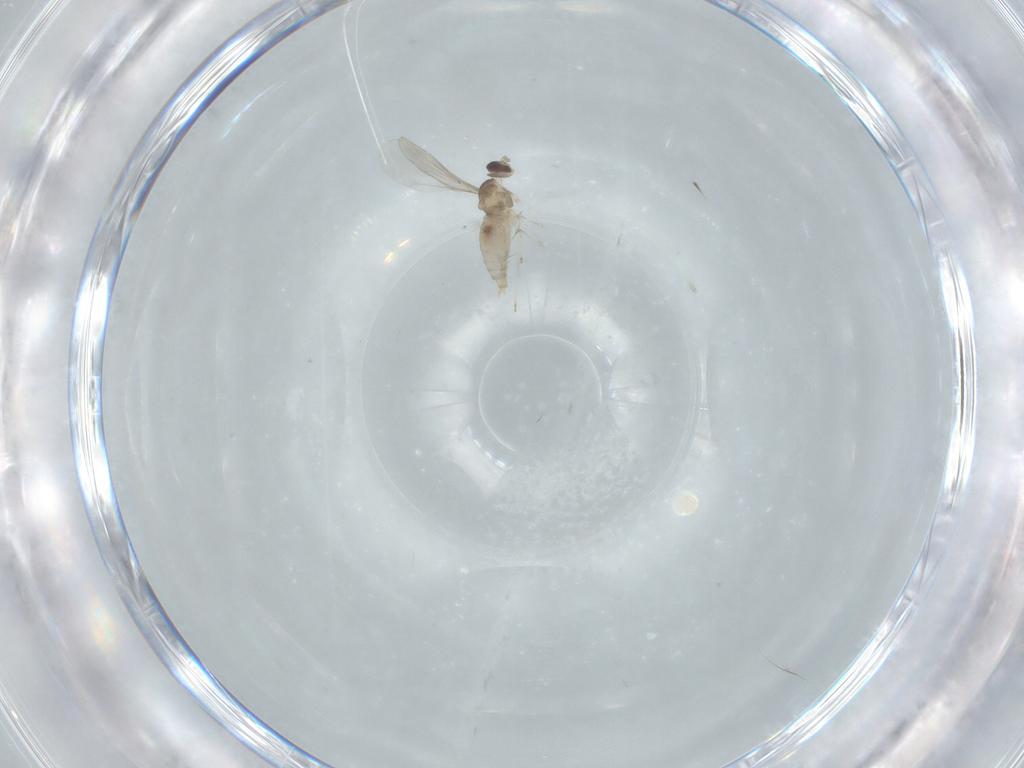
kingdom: Animalia
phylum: Arthropoda
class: Insecta
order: Diptera
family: Cecidomyiidae
